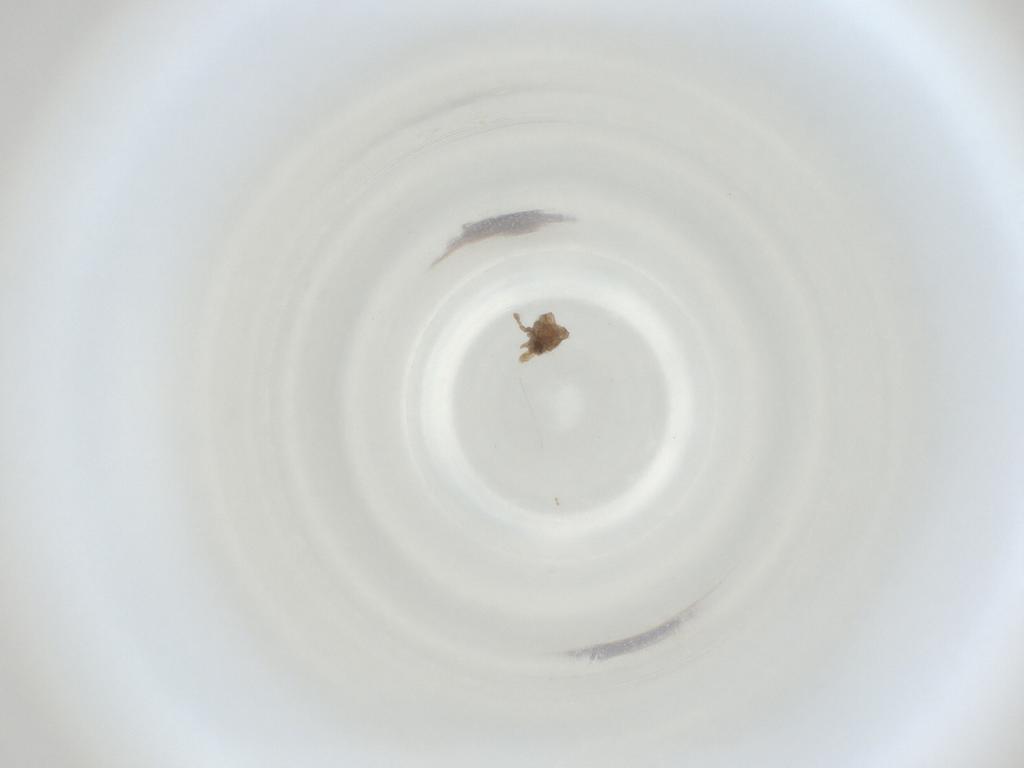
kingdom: Animalia
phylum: Arthropoda
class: Insecta
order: Diptera
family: Cecidomyiidae
